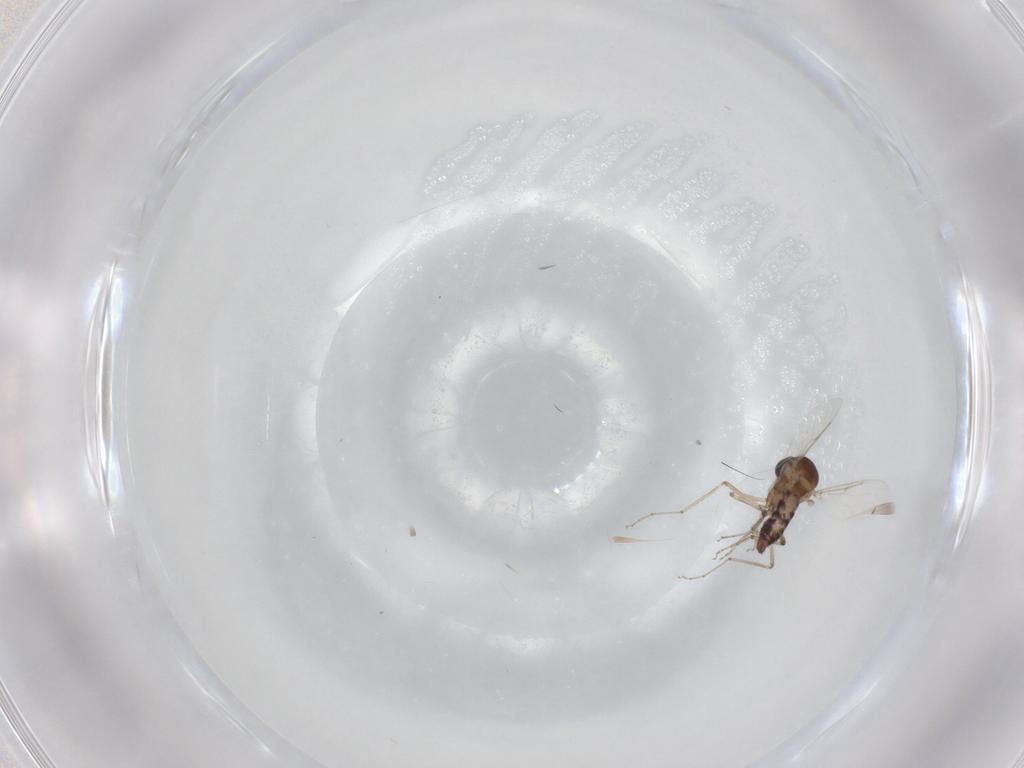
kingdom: Animalia
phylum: Arthropoda
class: Insecta
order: Diptera
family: Ceratopogonidae
